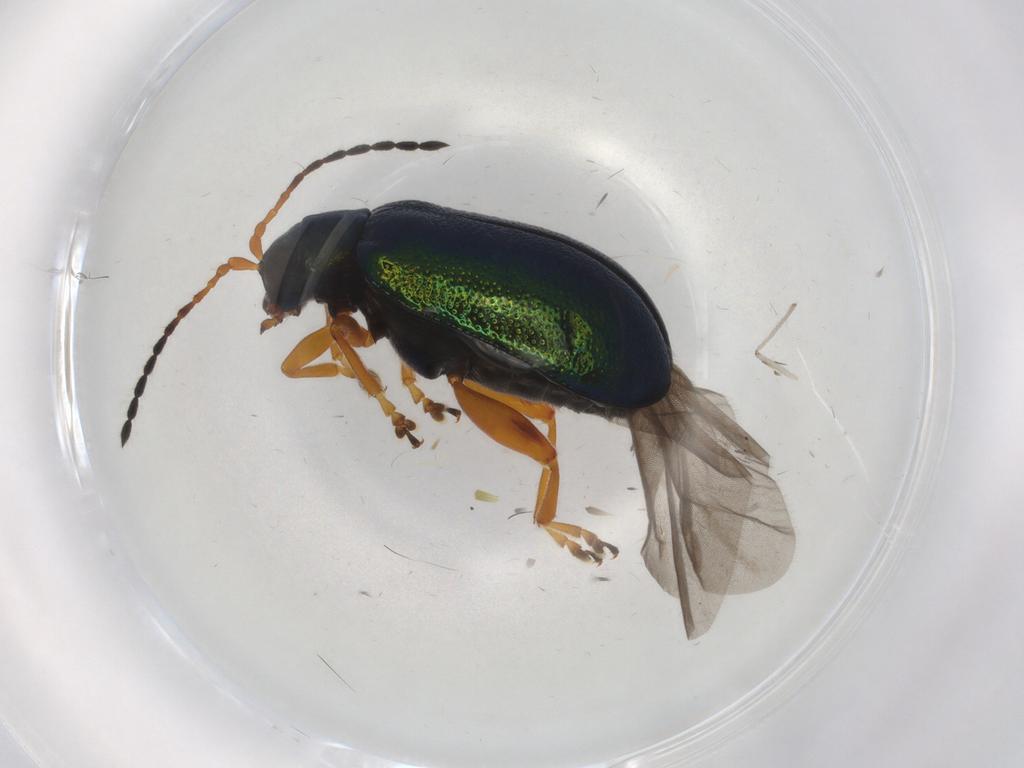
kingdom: Animalia
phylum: Arthropoda
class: Insecta
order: Coleoptera
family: Chrysomelidae
